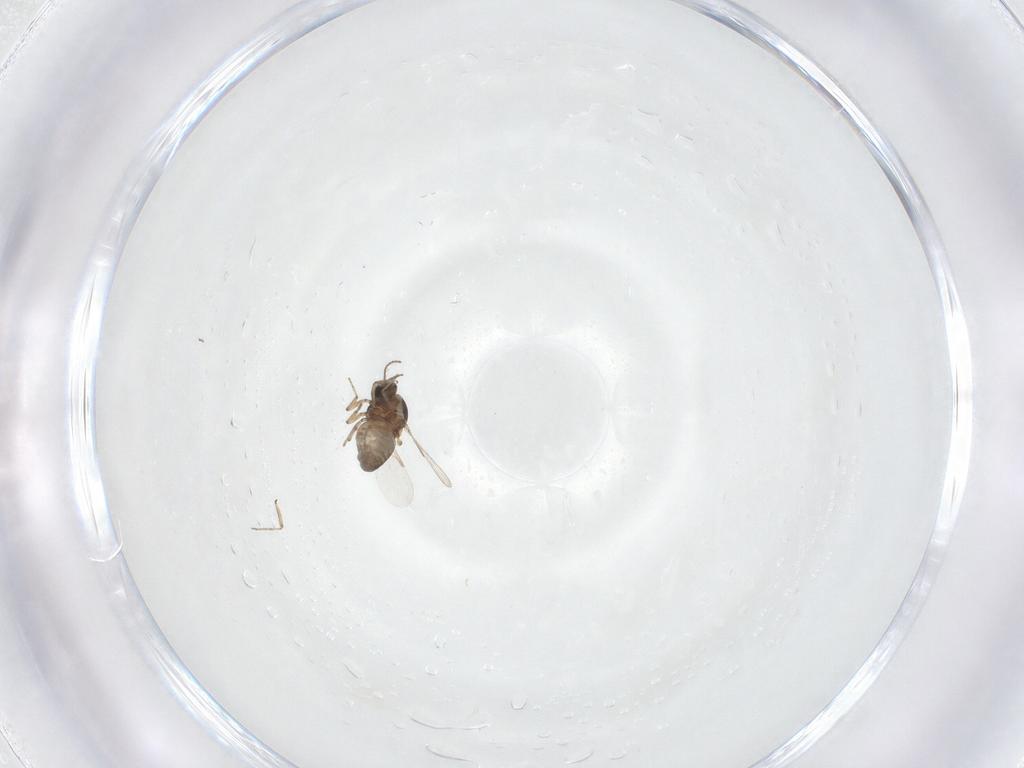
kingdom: Animalia
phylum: Arthropoda
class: Insecta
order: Diptera
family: Ceratopogonidae
